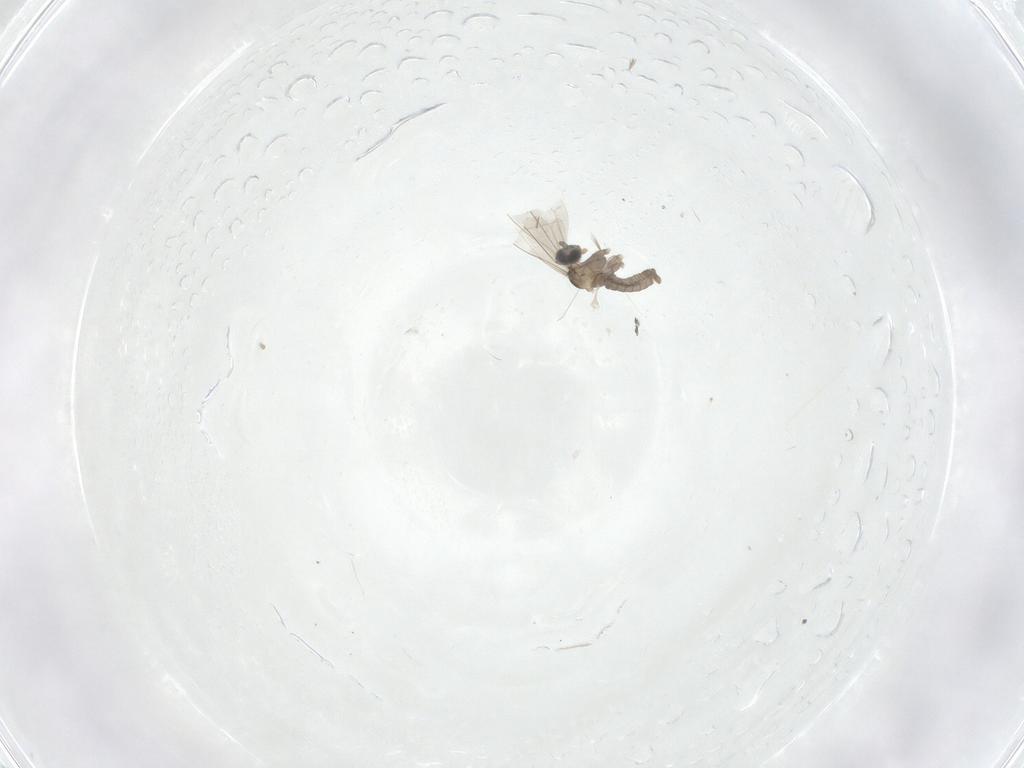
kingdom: Animalia
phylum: Arthropoda
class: Insecta
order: Diptera
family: Cecidomyiidae
